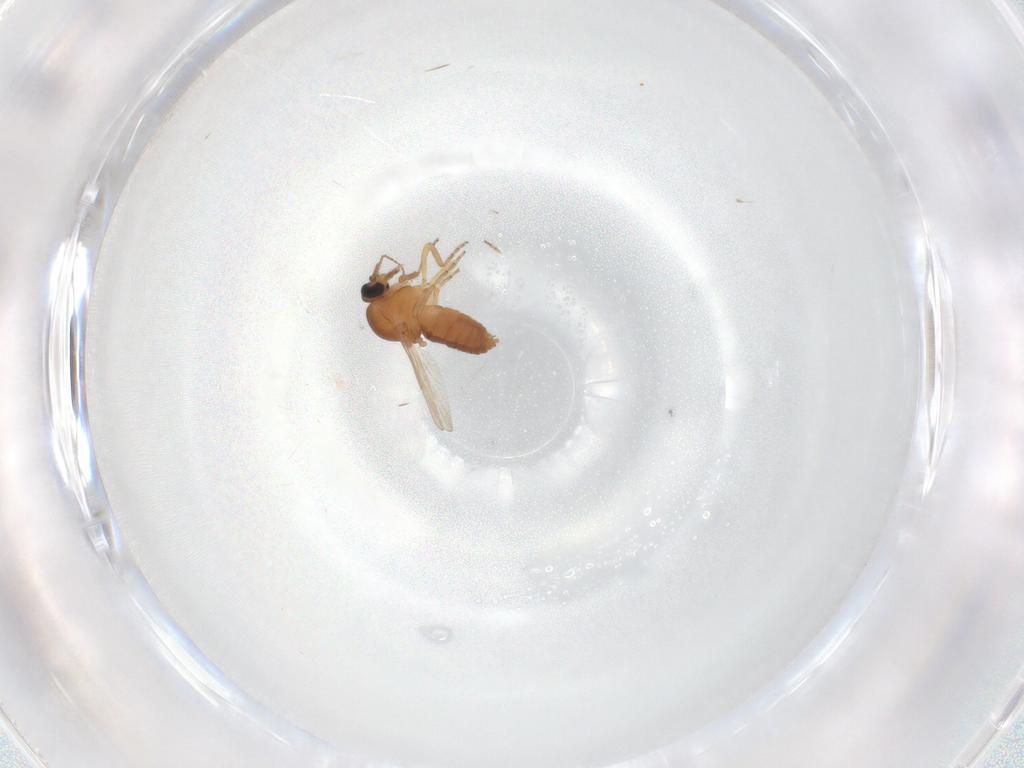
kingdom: Animalia
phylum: Arthropoda
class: Insecta
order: Diptera
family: Ceratopogonidae
